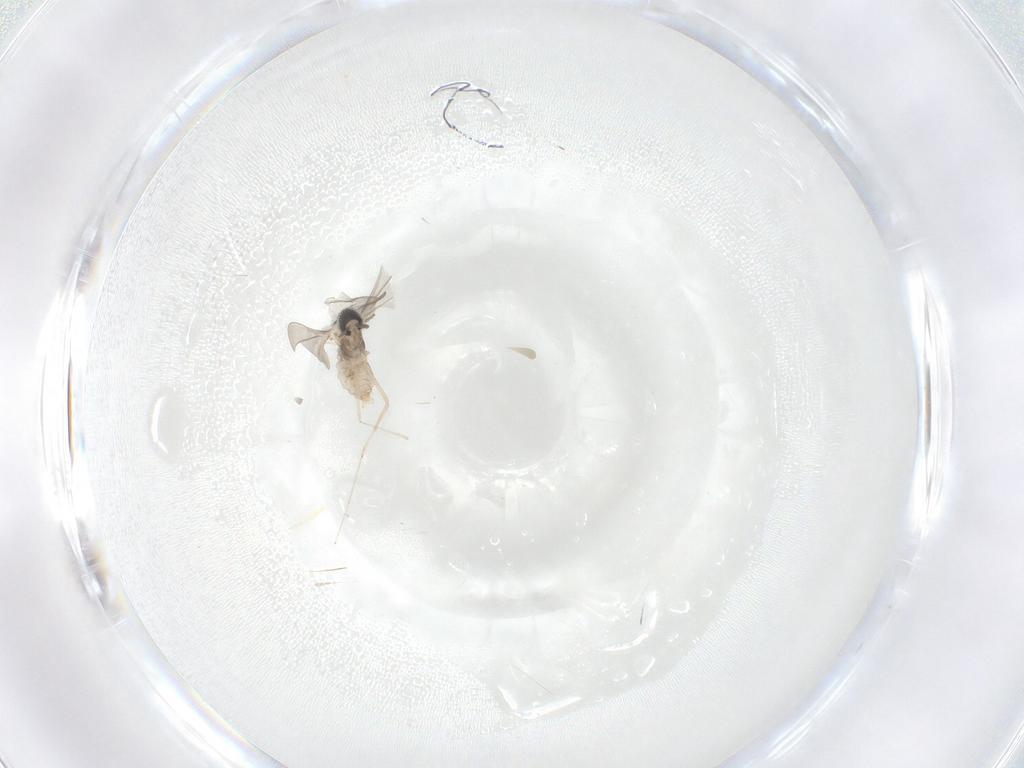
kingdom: Animalia
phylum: Arthropoda
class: Insecta
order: Diptera
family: Cecidomyiidae
